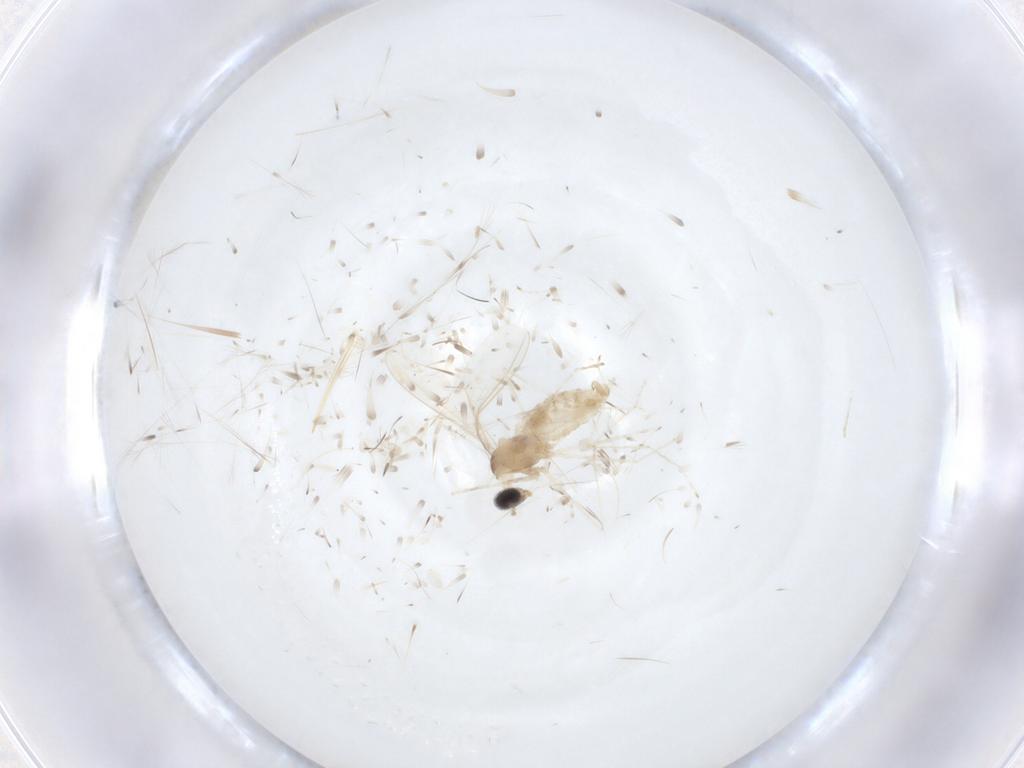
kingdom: Animalia
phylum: Arthropoda
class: Insecta
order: Diptera
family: Cecidomyiidae
